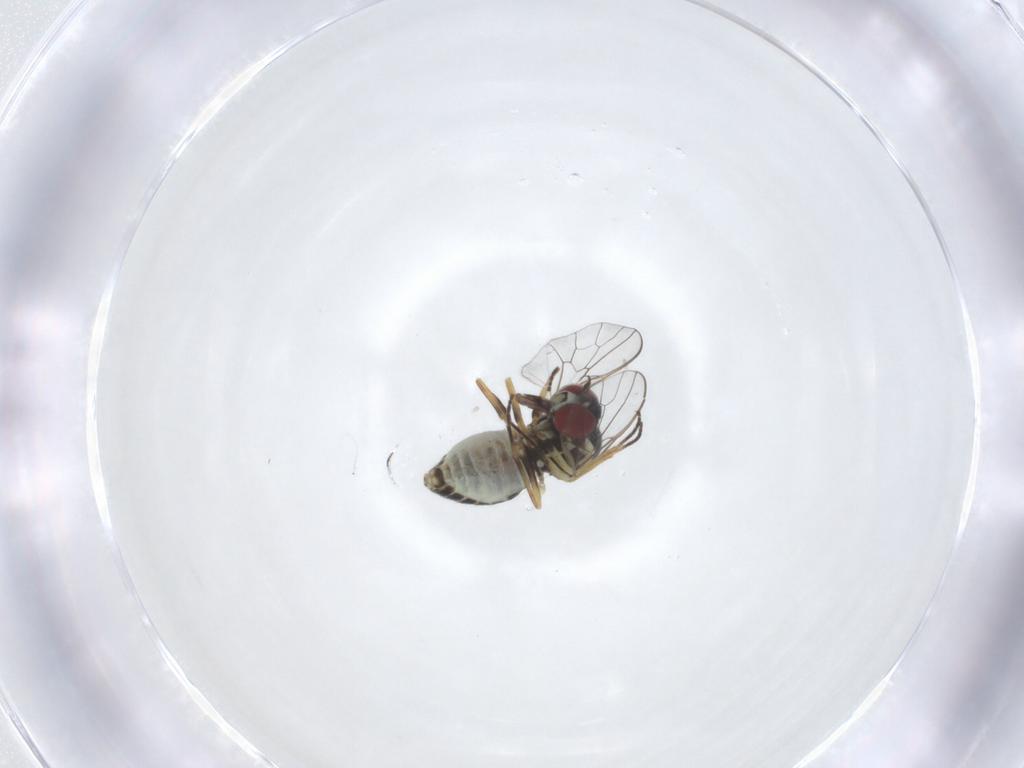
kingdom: Animalia
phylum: Arthropoda
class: Insecta
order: Diptera
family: Bombyliidae
